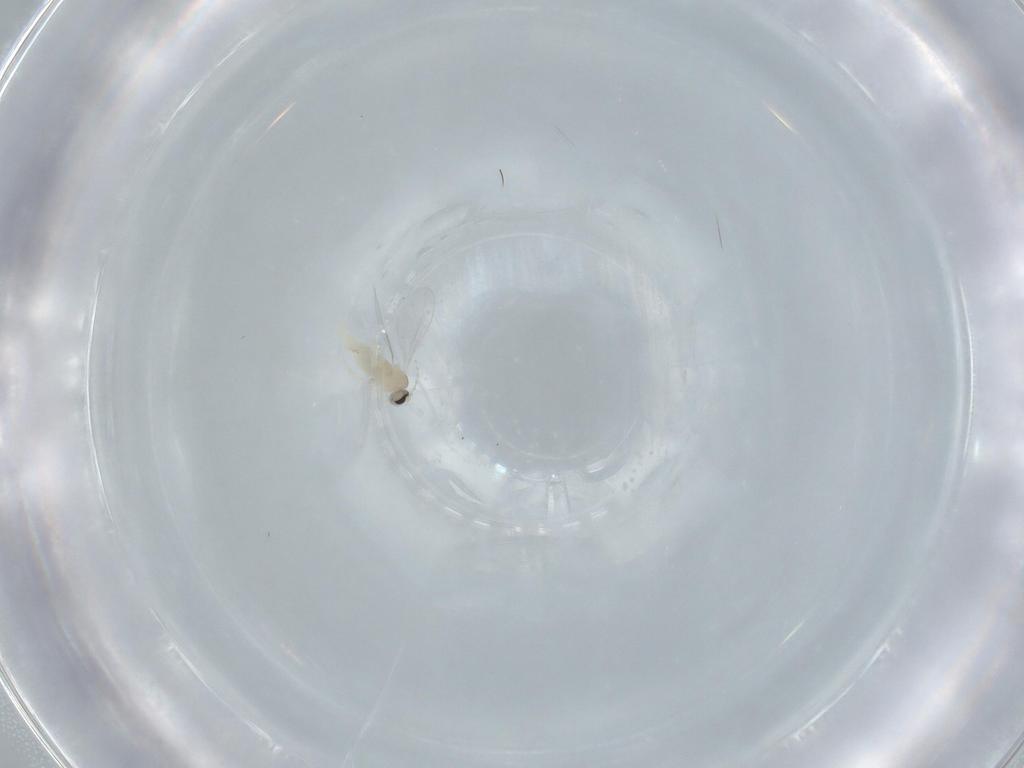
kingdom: Animalia
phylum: Arthropoda
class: Insecta
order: Diptera
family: Cecidomyiidae
